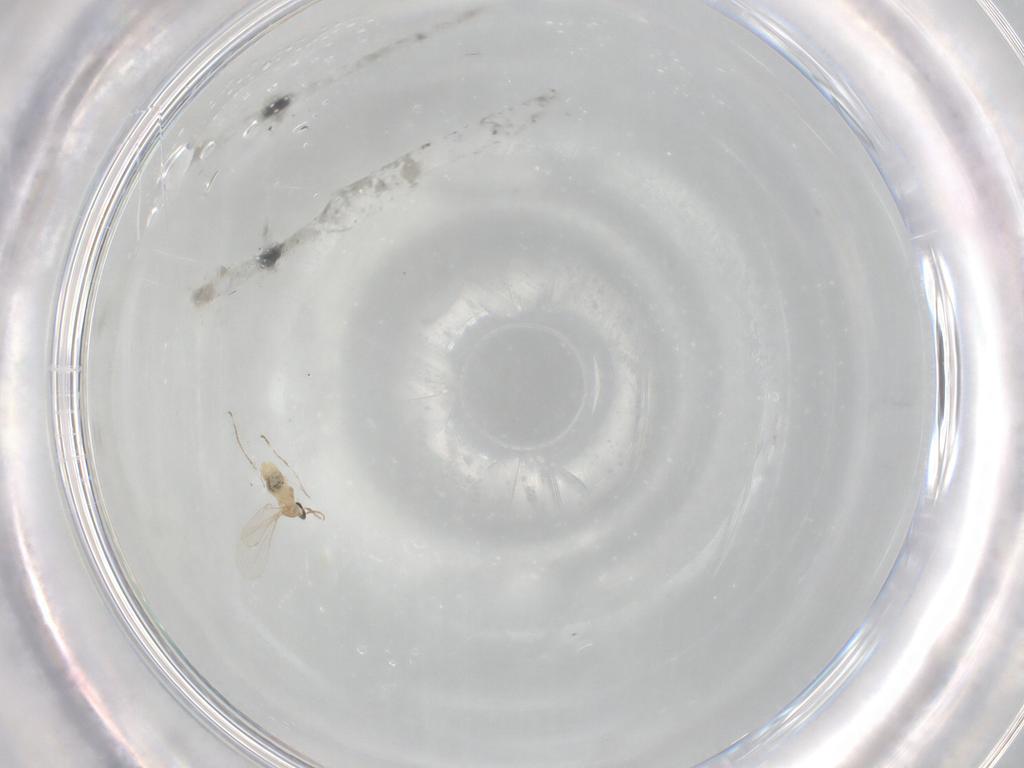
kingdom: Animalia
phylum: Arthropoda
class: Insecta
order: Diptera
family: Cecidomyiidae
